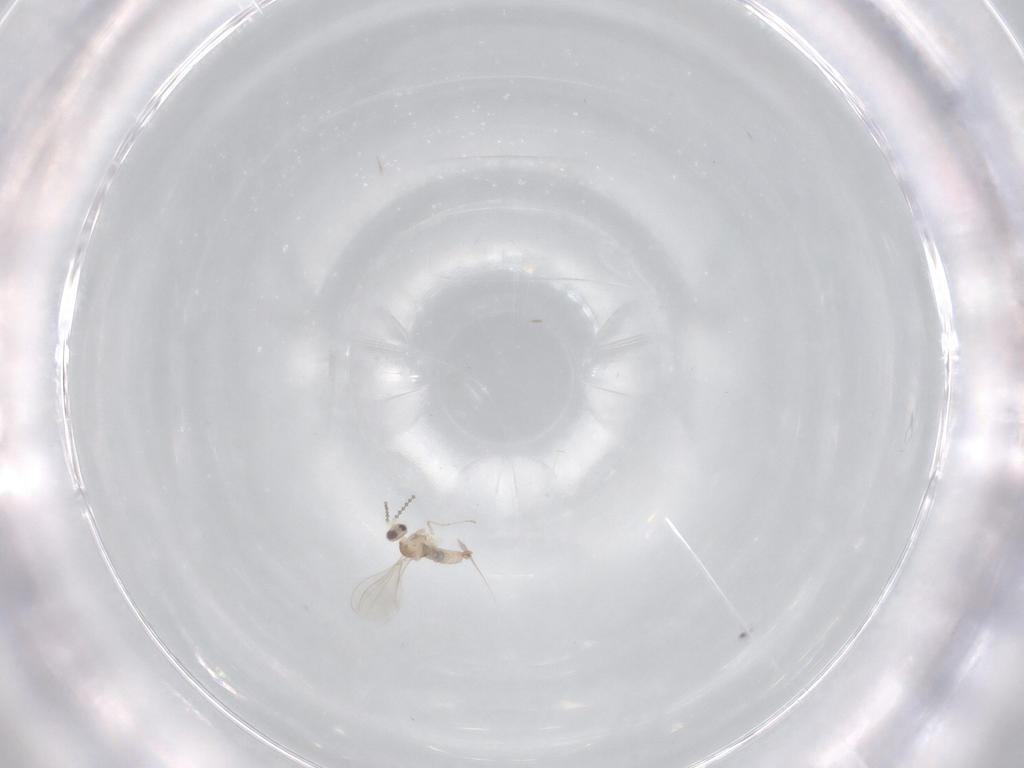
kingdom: Animalia
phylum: Arthropoda
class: Insecta
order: Diptera
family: Cecidomyiidae
